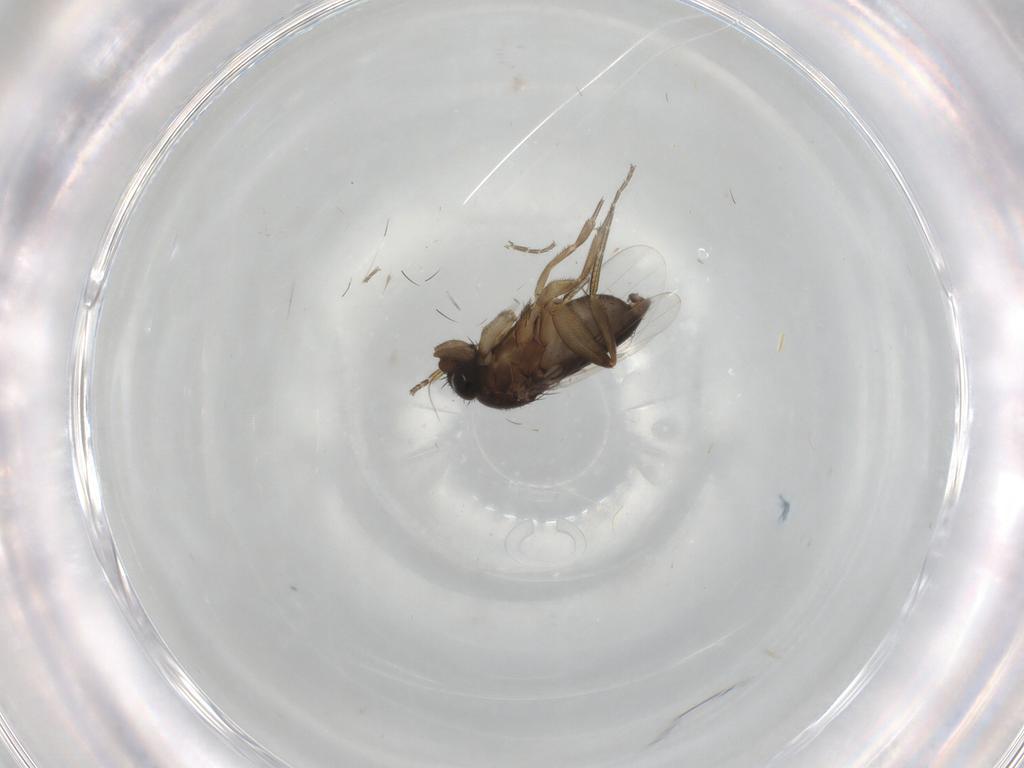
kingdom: Animalia
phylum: Arthropoda
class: Insecta
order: Diptera
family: Phoridae
